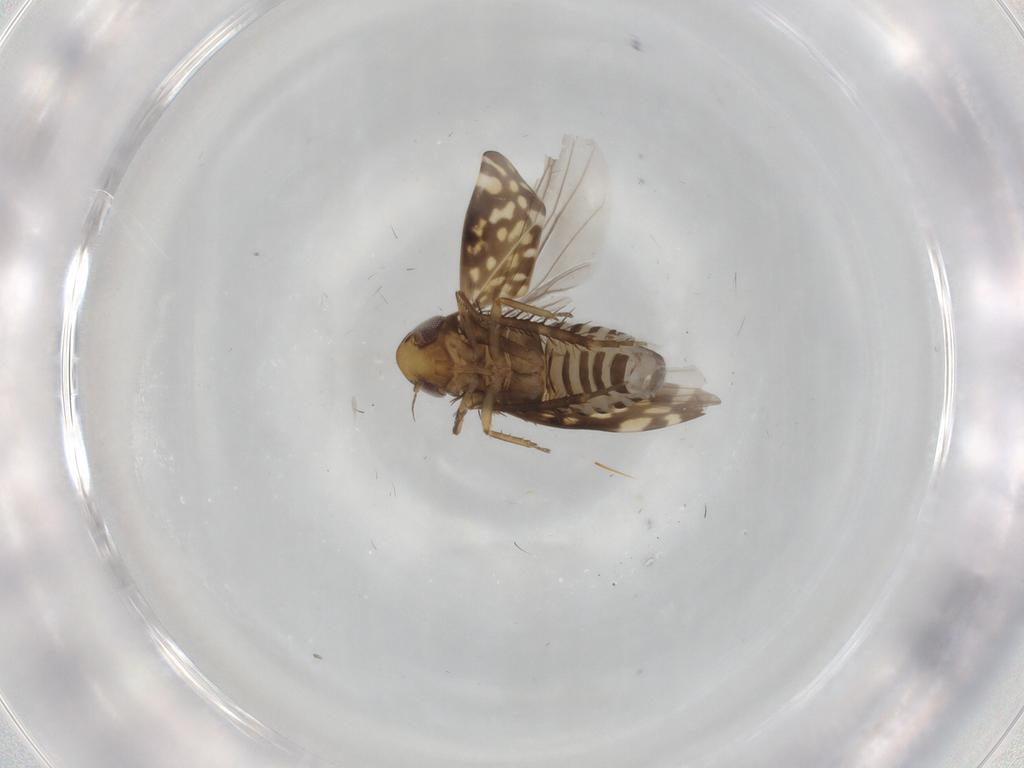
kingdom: Animalia
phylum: Arthropoda
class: Insecta
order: Hemiptera
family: Cicadellidae
